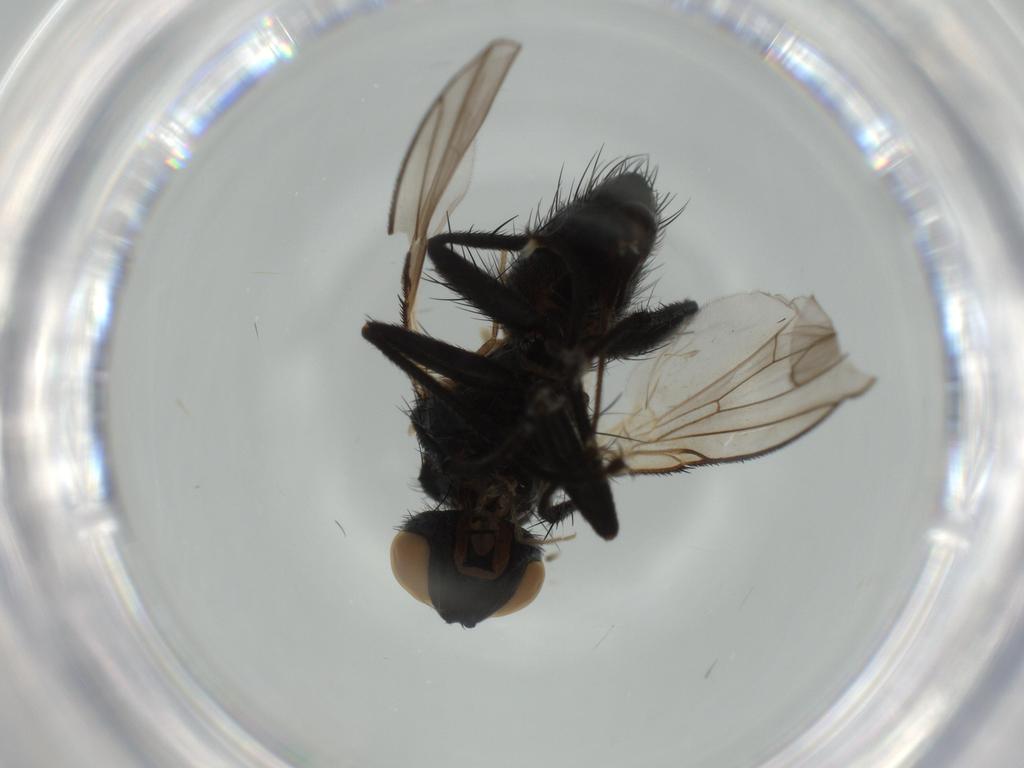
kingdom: Animalia
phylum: Arthropoda
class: Insecta
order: Diptera
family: Muscidae
